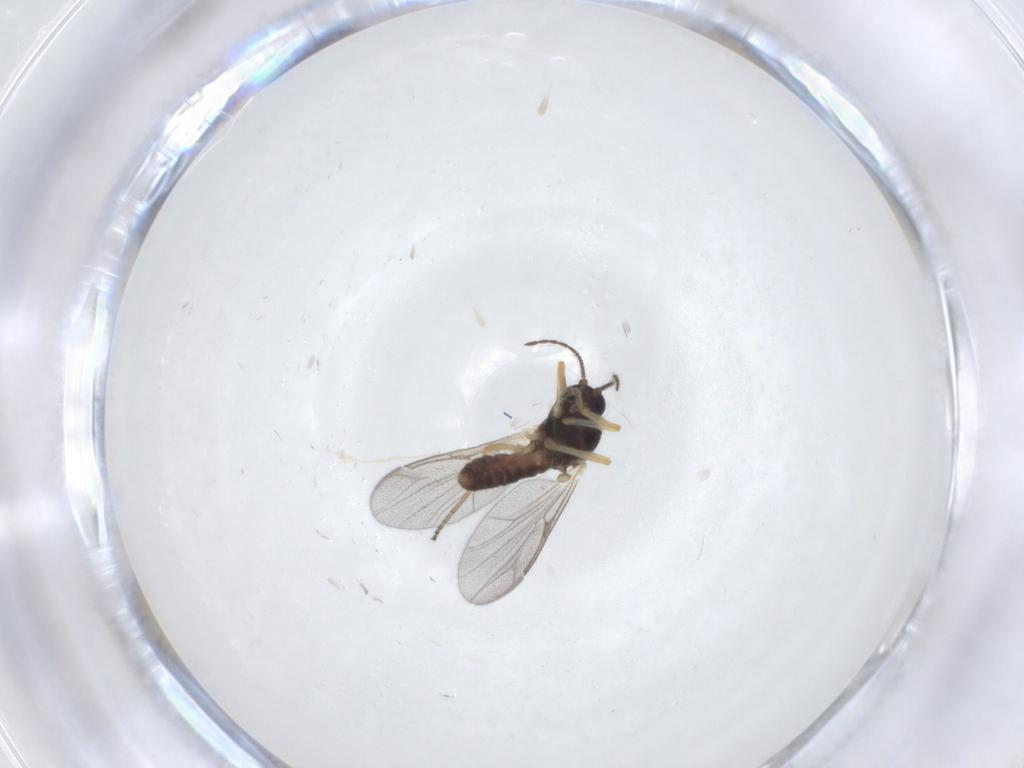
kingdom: Animalia
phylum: Arthropoda
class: Insecta
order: Diptera
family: Ceratopogonidae
